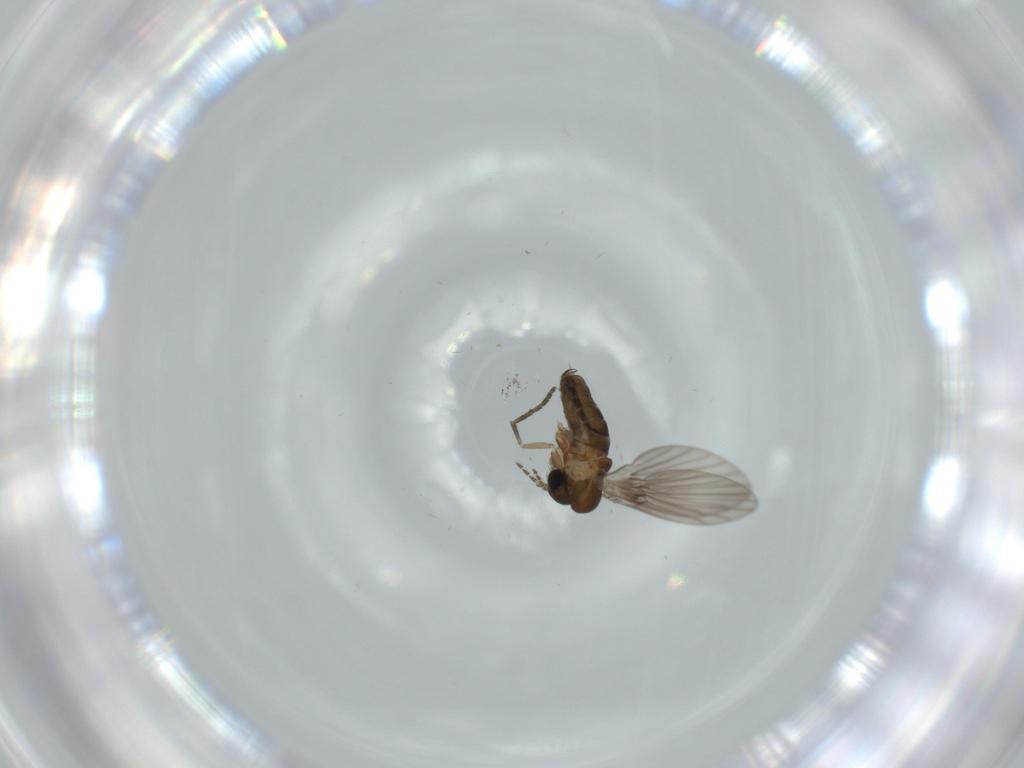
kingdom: Animalia
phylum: Arthropoda
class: Insecta
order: Diptera
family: Psychodidae
